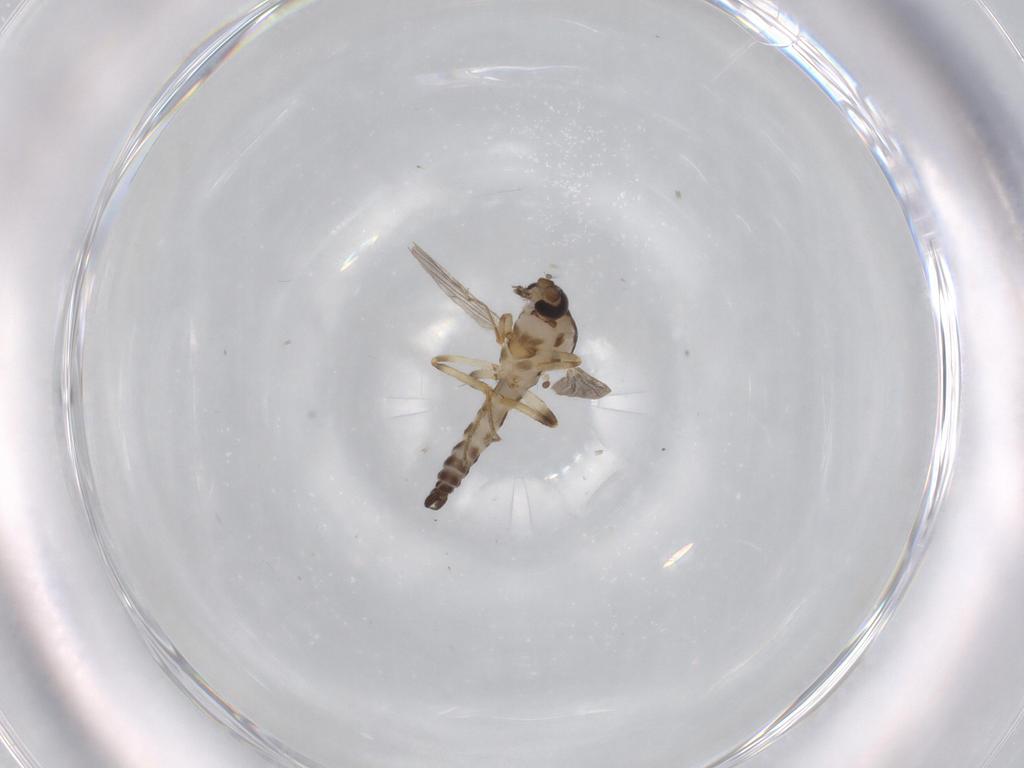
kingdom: Animalia
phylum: Arthropoda
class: Insecta
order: Diptera
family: Ceratopogonidae
